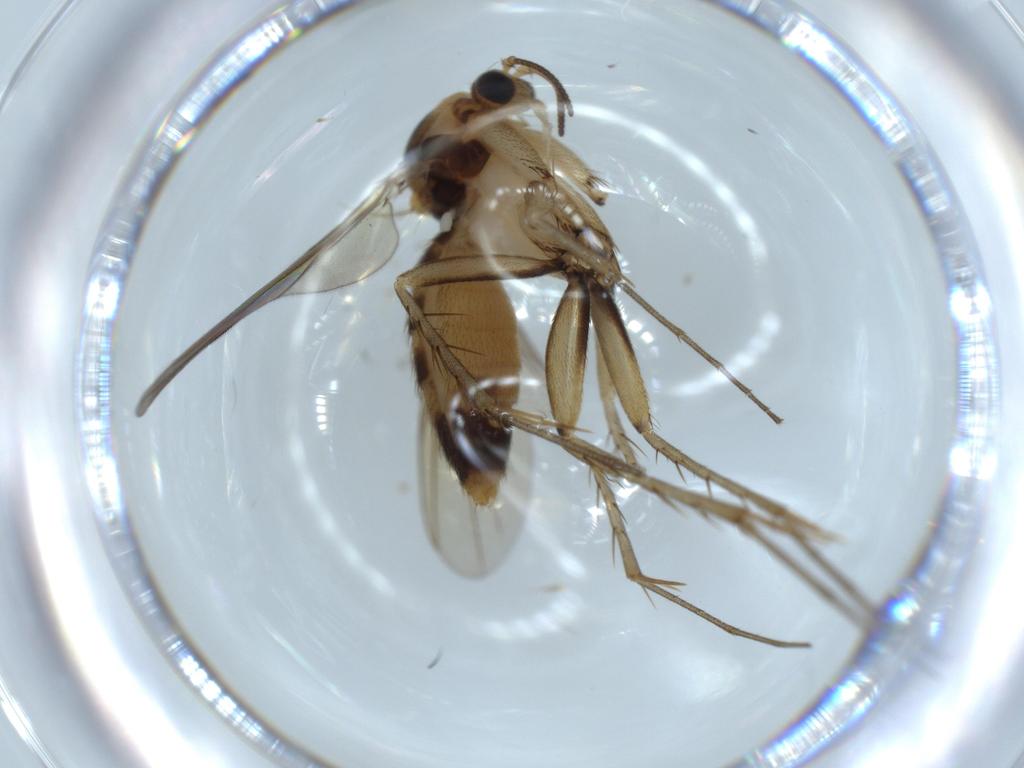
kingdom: Animalia
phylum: Arthropoda
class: Insecta
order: Diptera
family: Mycetophilidae
